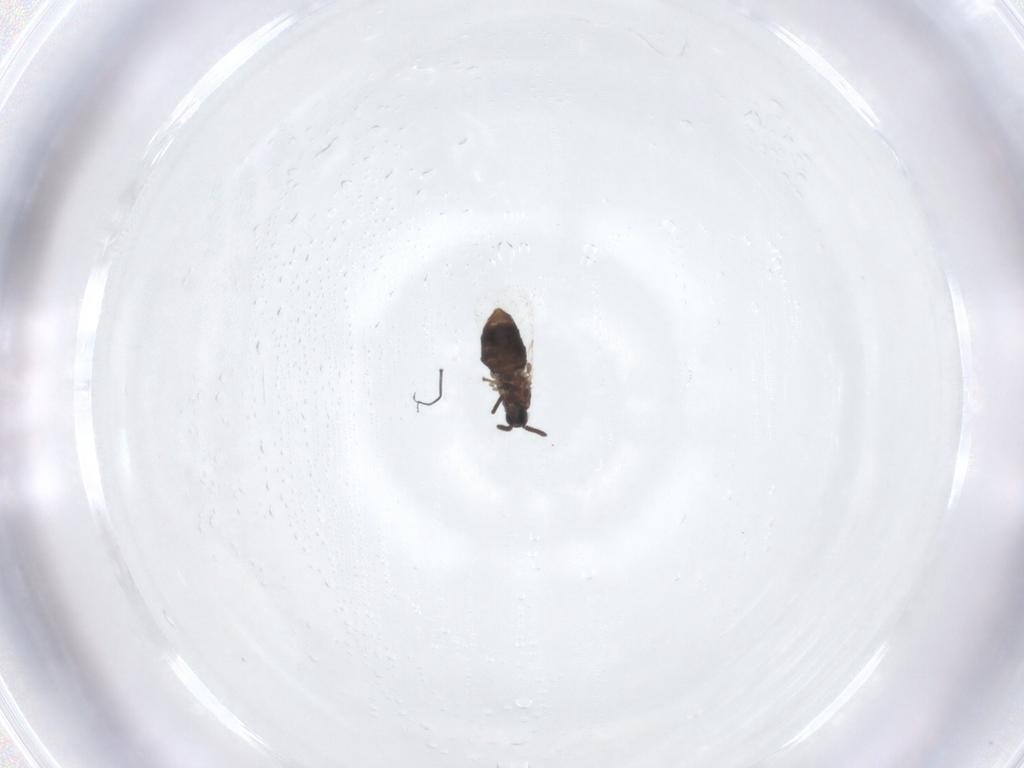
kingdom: Animalia
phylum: Arthropoda
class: Insecta
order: Diptera
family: Scatopsidae
